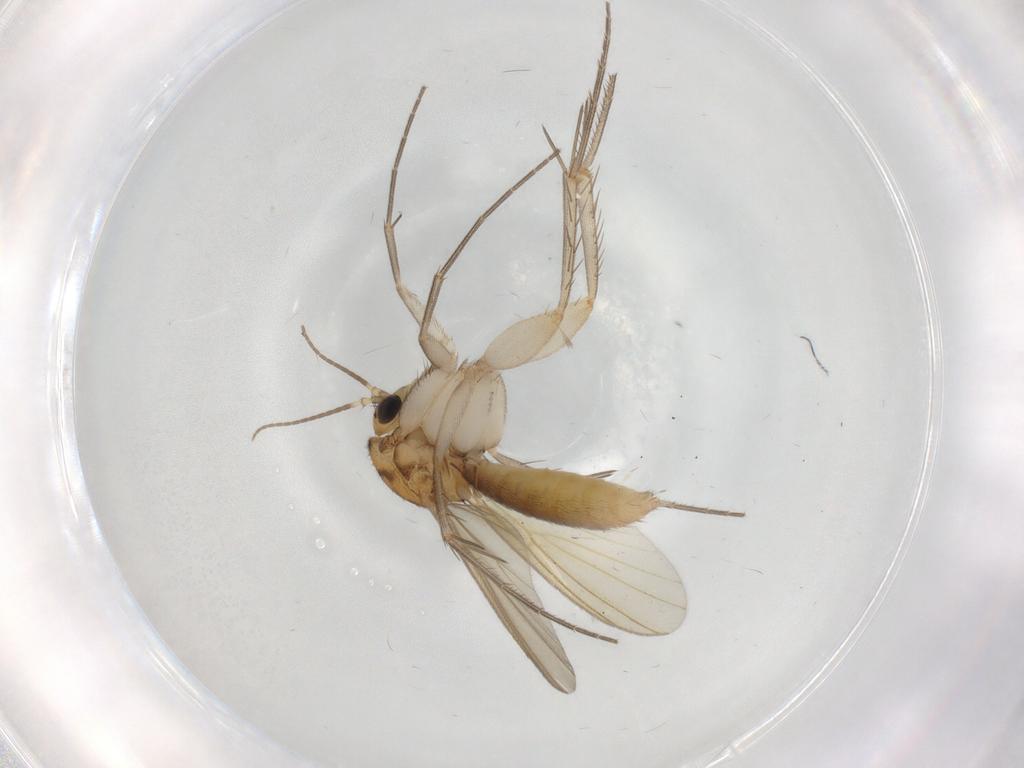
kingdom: Animalia
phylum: Arthropoda
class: Insecta
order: Diptera
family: Mycetophilidae
